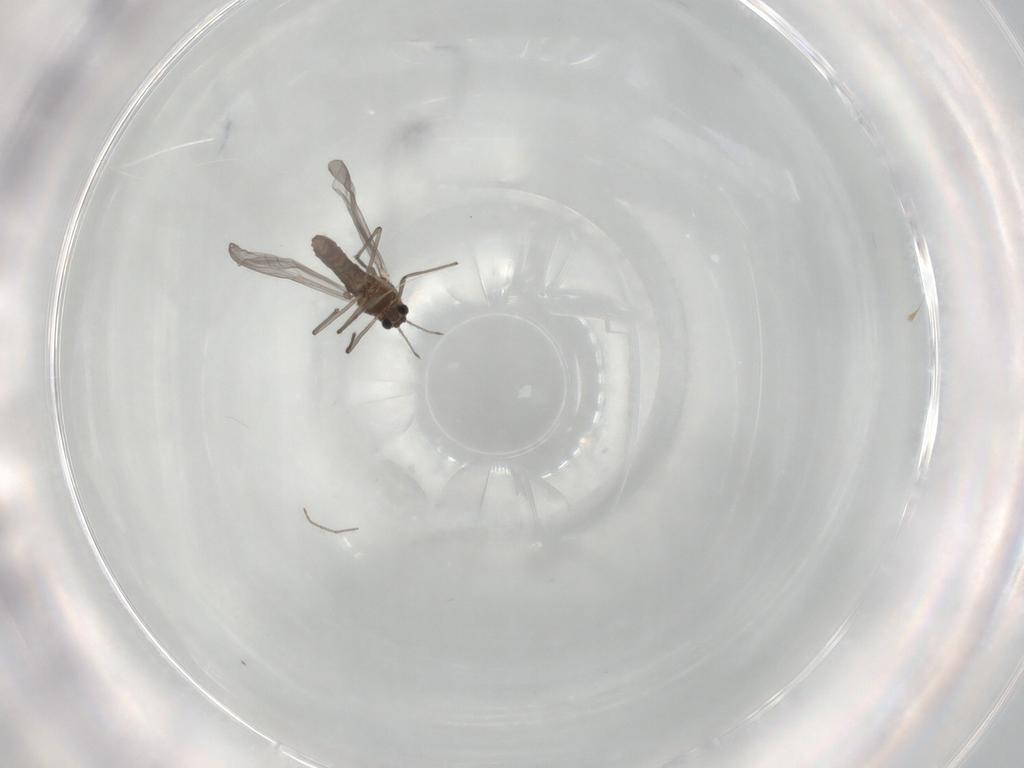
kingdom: Animalia
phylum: Arthropoda
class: Insecta
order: Diptera
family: Chironomidae
